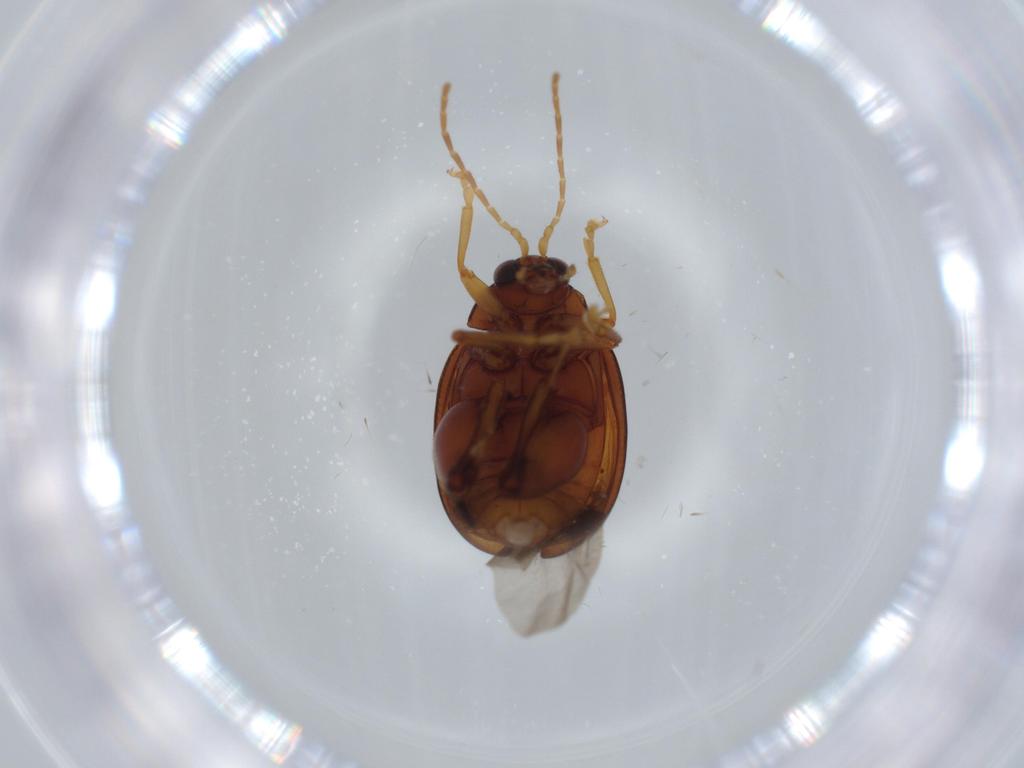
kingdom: Animalia
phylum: Arthropoda
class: Insecta
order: Coleoptera
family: Chrysomelidae
